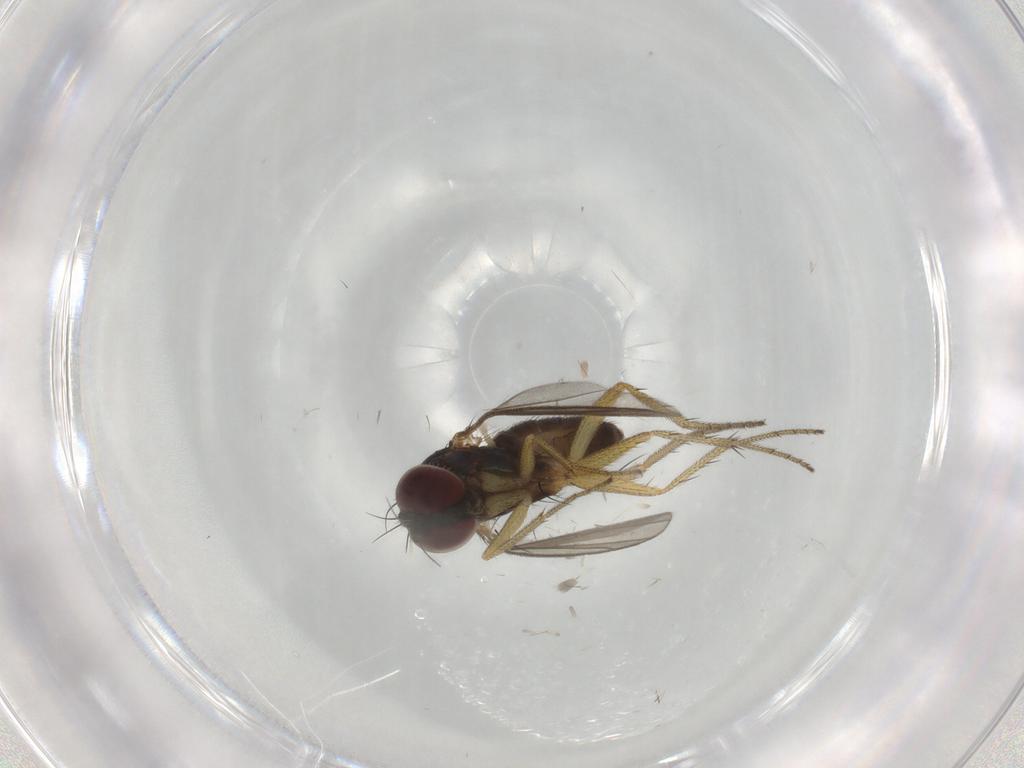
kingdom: Animalia
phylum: Arthropoda
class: Insecta
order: Diptera
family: Dolichopodidae
